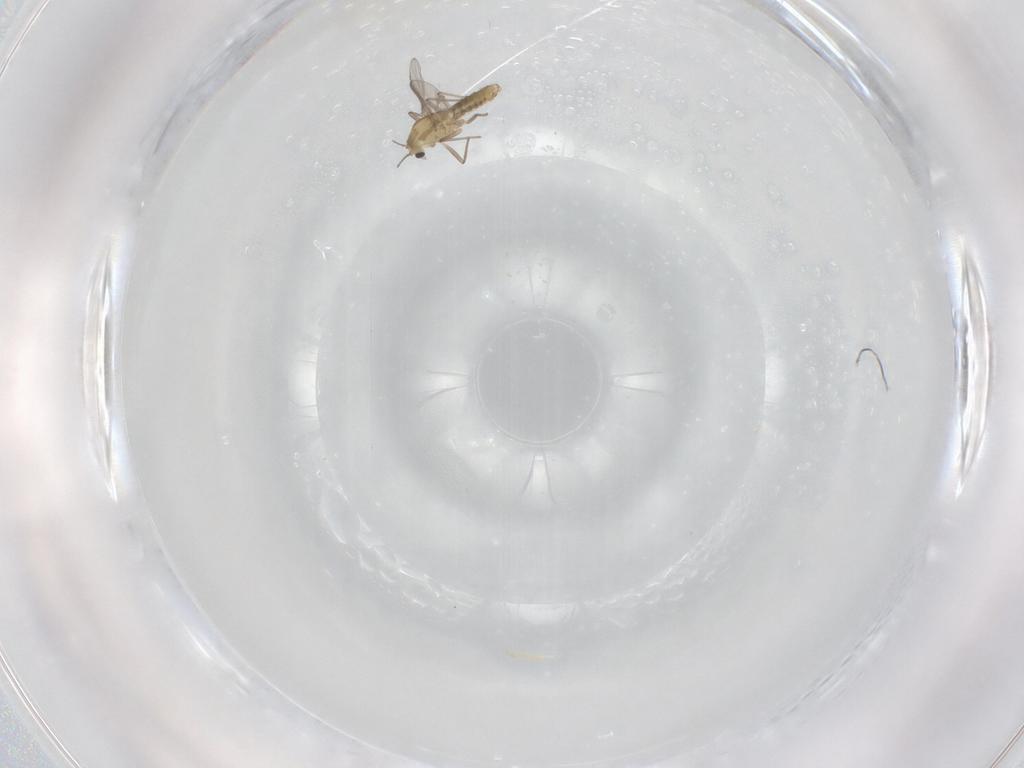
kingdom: Animalia
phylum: Arthropoda
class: Insecta
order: Diptera
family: Chironomidae
